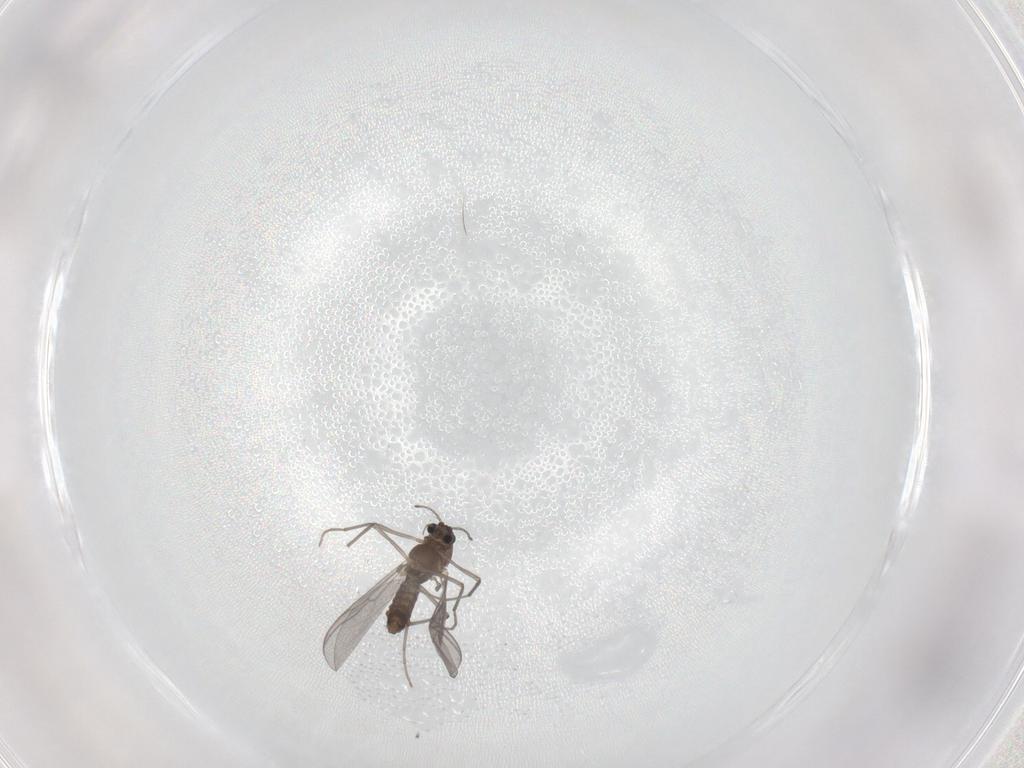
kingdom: Animalia
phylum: Arthropoda
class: Insecta
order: Diptera
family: Chironomidae
